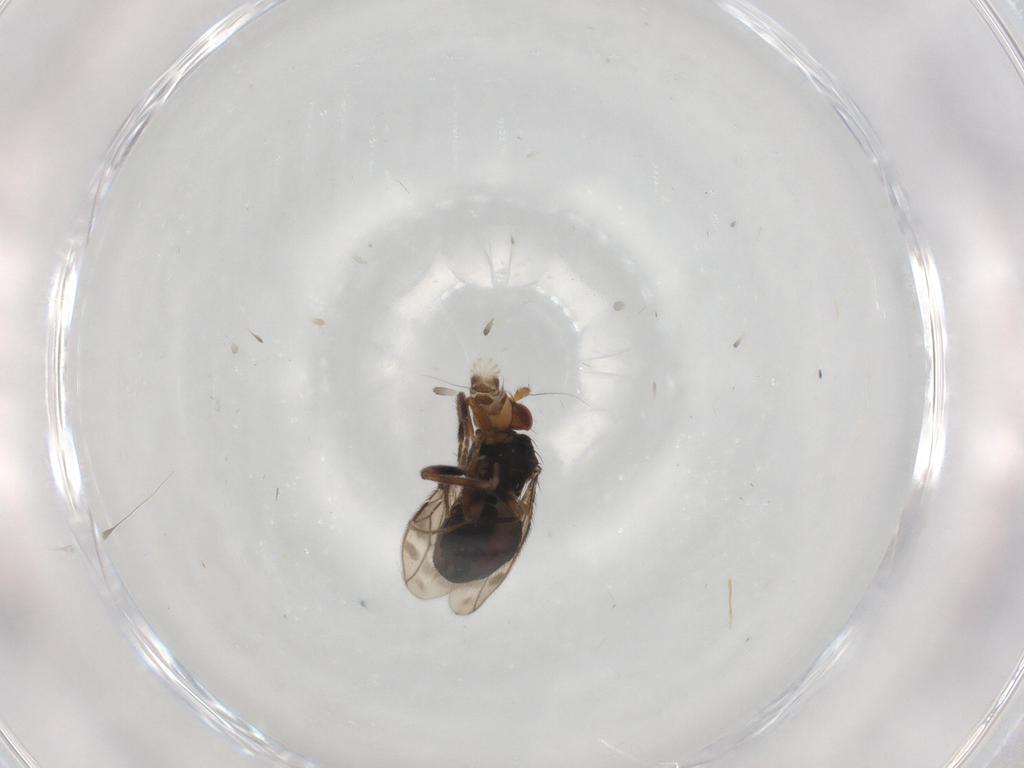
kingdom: Animalia
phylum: Arthropoda
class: Insecta
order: Diptera
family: Sphaeroceridae
